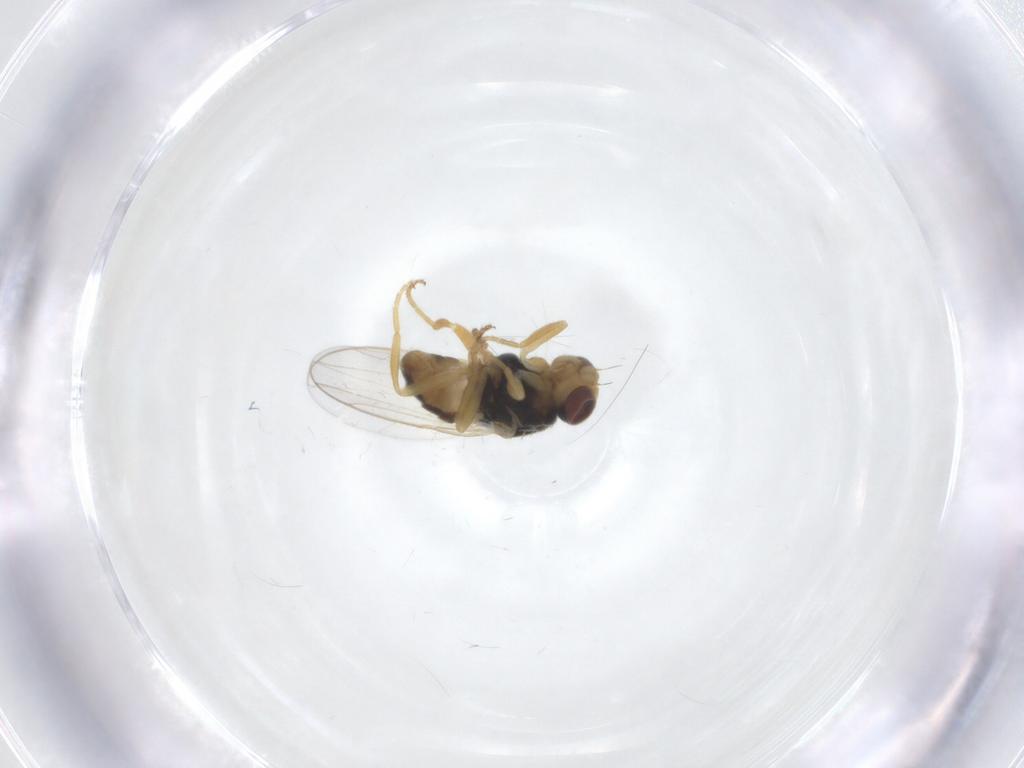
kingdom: Animalia
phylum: Arthropoda
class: Insecta
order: Diptera
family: Chloropidae
